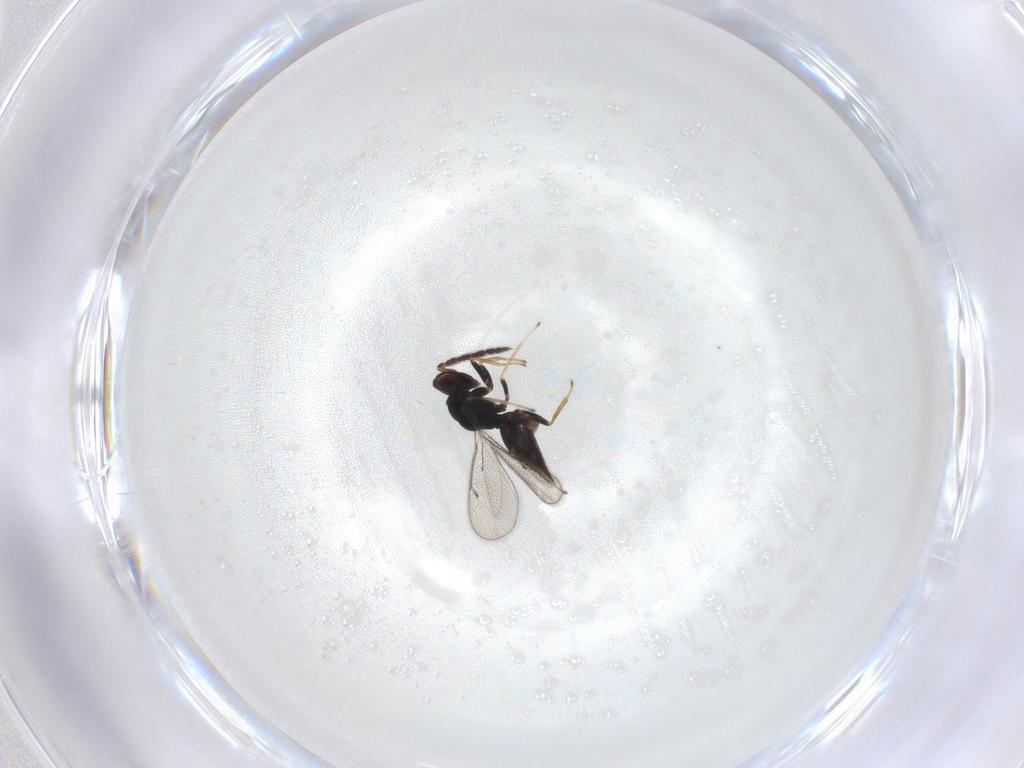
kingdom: Animalia
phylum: Arthropoda
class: Insecta
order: Hymenoptera
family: Eulophidae
